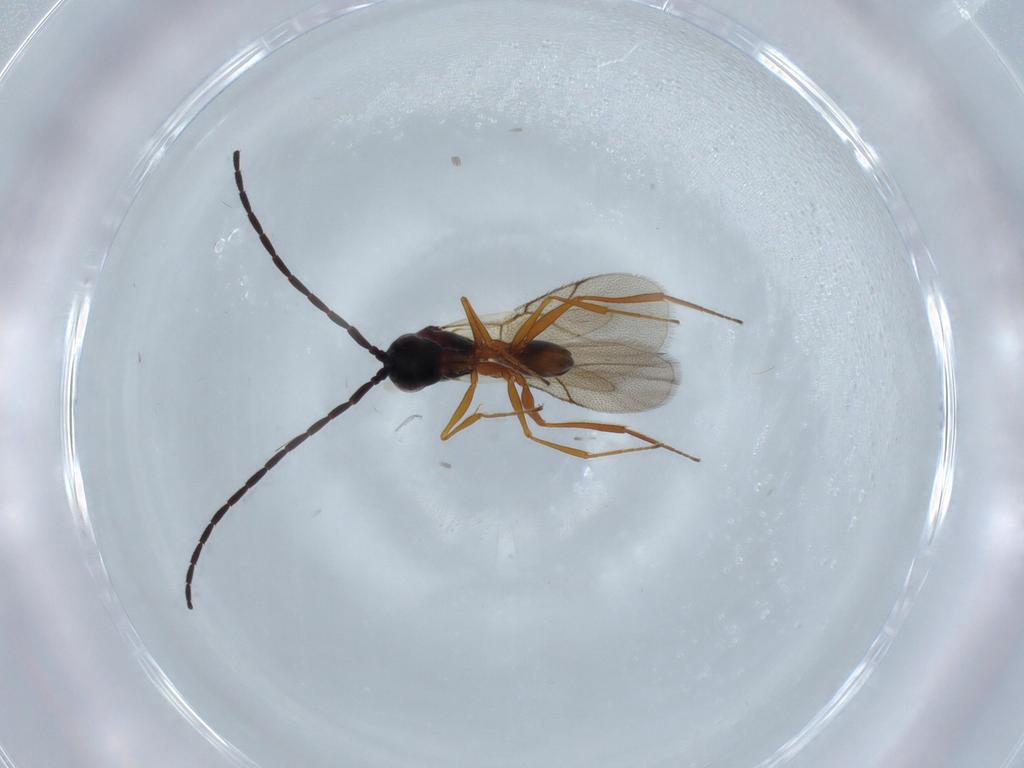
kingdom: Animalia
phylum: Arthropoda
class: Insecta
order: Hymenoptera
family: Figitidae
